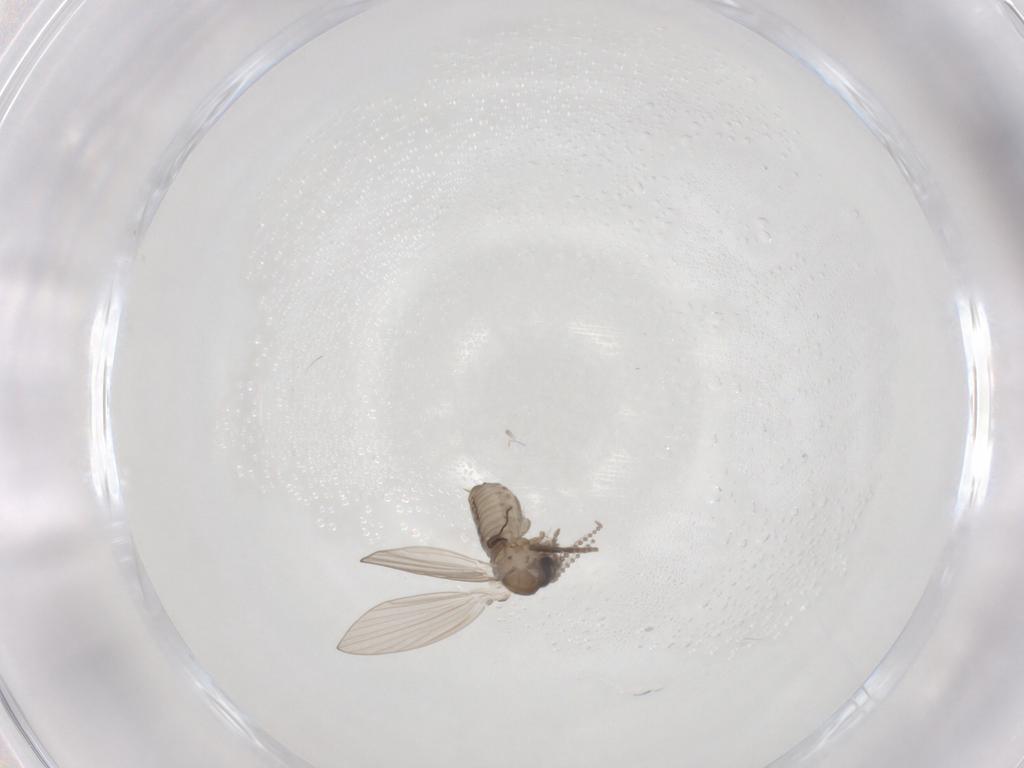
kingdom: Animalia
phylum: Arthropoda
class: Insecta
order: Diptera
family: Psychodidae
